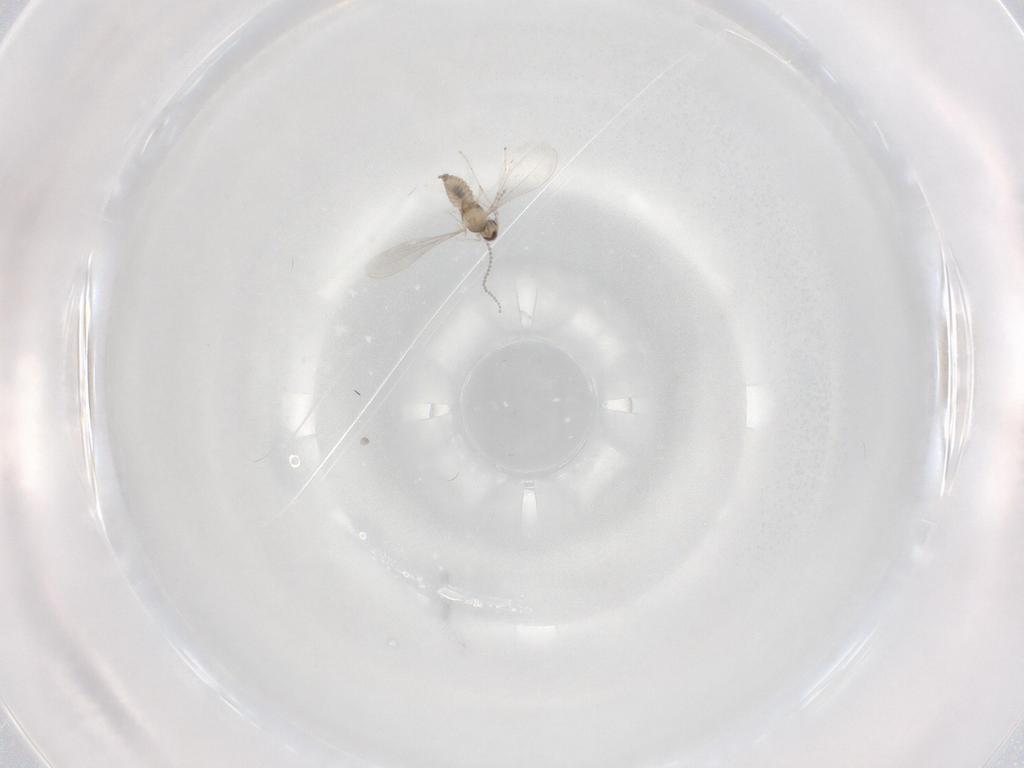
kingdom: Animalia
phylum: Arthropoda
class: Insecta
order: Diptera
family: Cecidomyiidae
